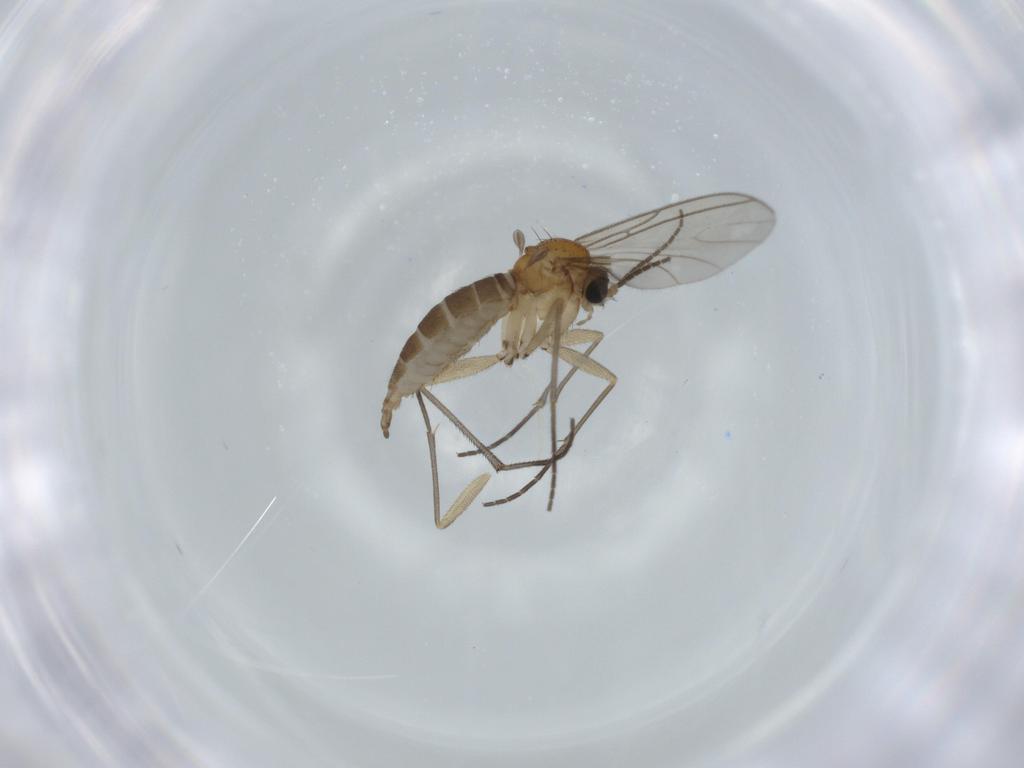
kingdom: Animalia
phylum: Arthropoda
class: Insecta
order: Diptera
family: Sciaridae
